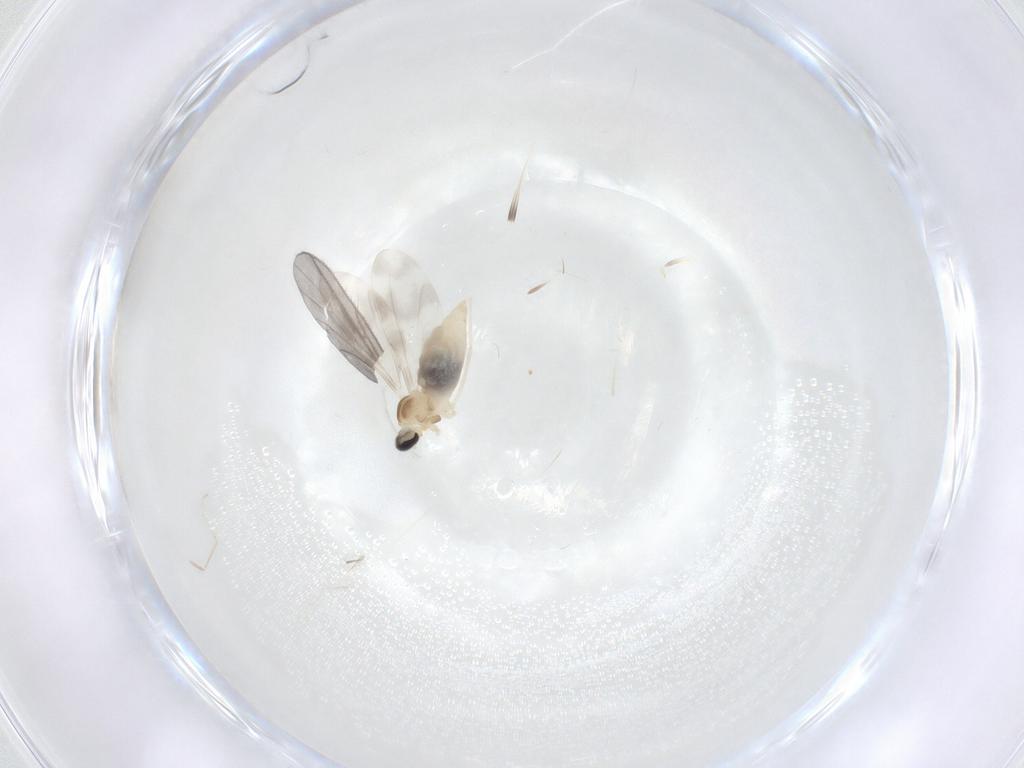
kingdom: Animalia
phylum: Arthropoda
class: Insecta
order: Diptera
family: Cecidomyiidae
